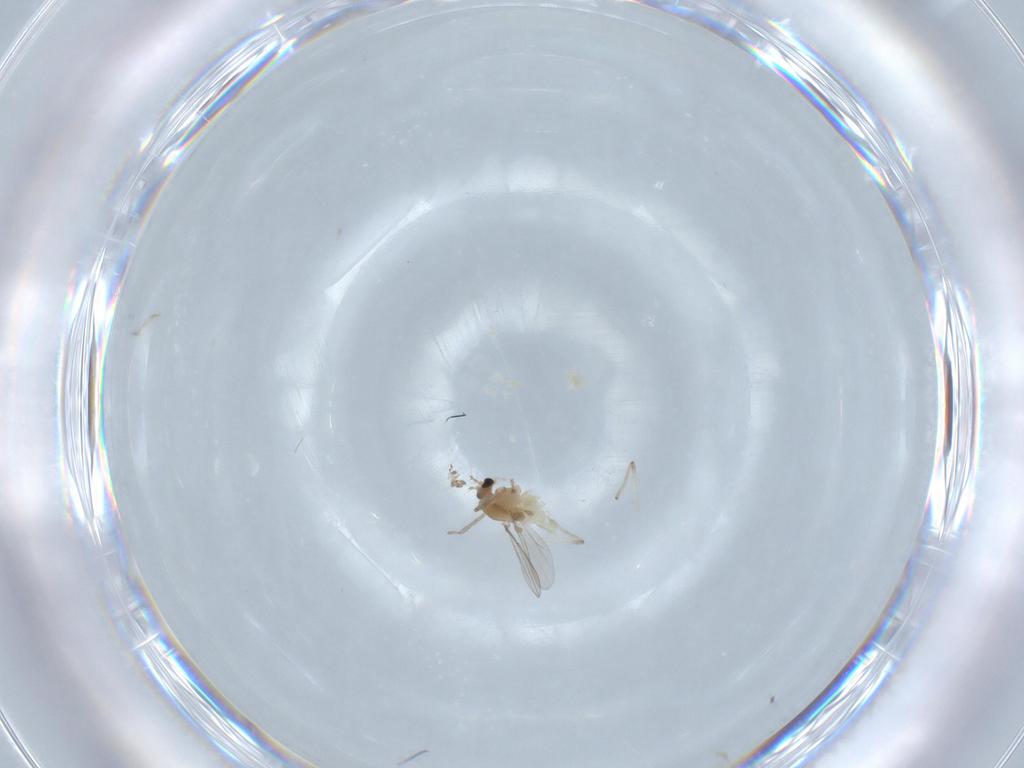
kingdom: Animalia
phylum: Arthropoda
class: Insecta
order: Diptera
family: Chironomidae
